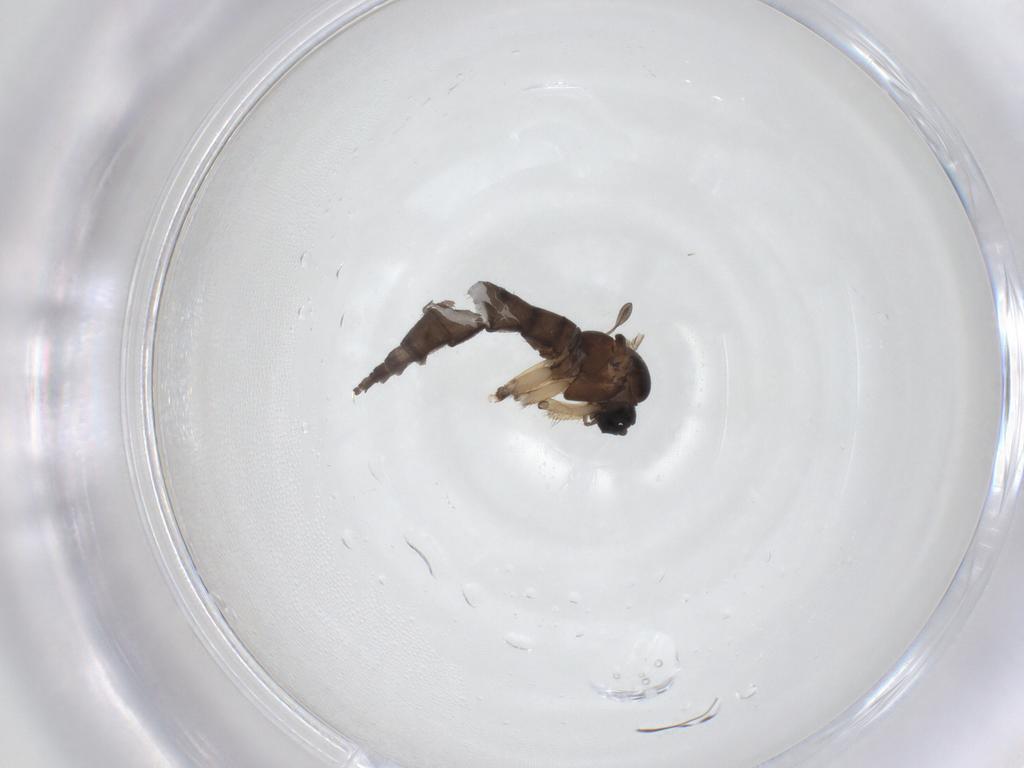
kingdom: Animalia
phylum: Arthropoda
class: Insecta
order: Diptera
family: Sciaridae
